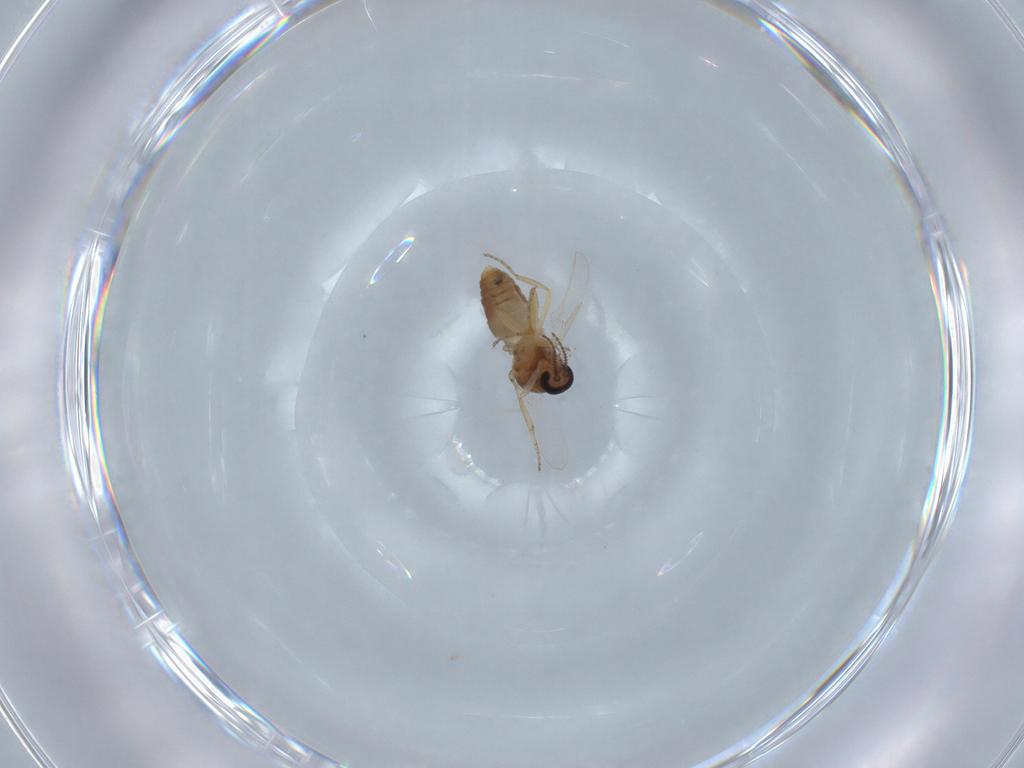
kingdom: Animalia
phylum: Arthropoda
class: Insecta
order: Diptera
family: Ceratopogonidae
